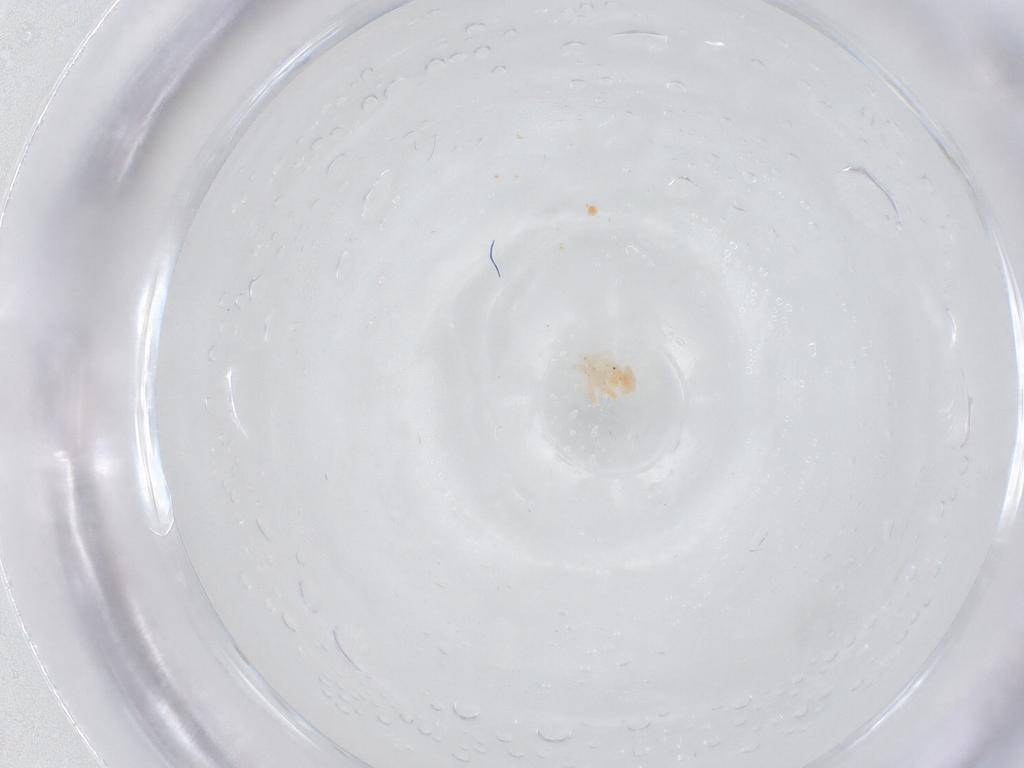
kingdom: Animalia
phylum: Arthropoda
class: Arachnida
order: Trombidiformes
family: Anystidae
